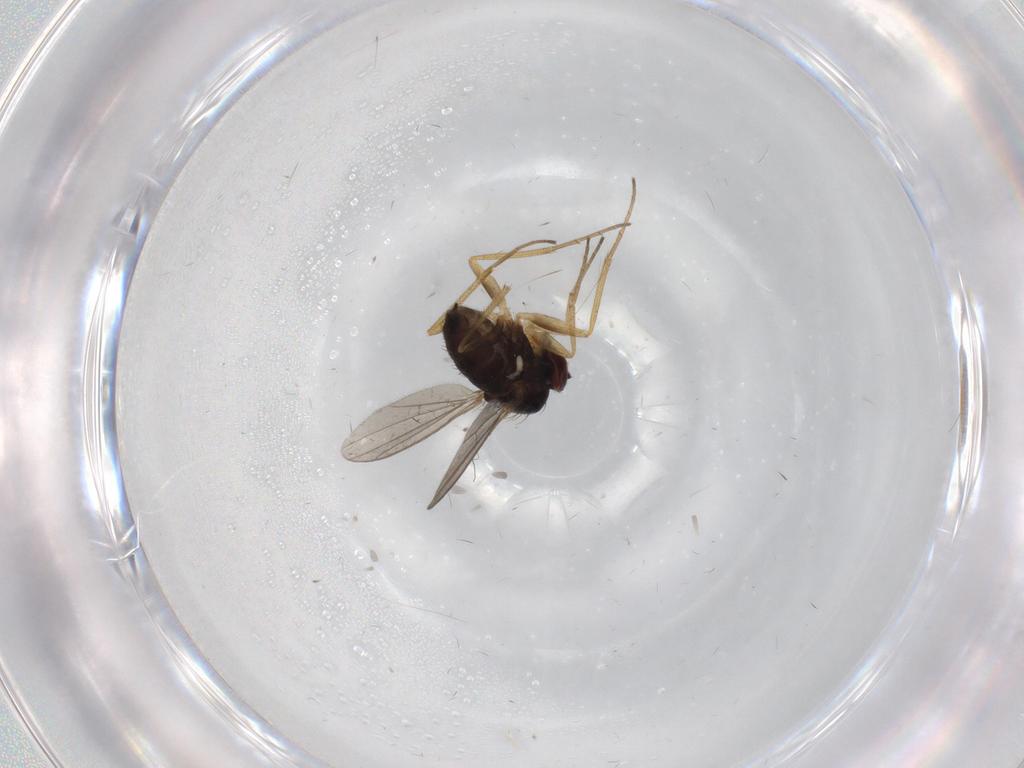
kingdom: Animalia
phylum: Arthropoda
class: Insecta
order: Diptera
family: Dolichopodidae
